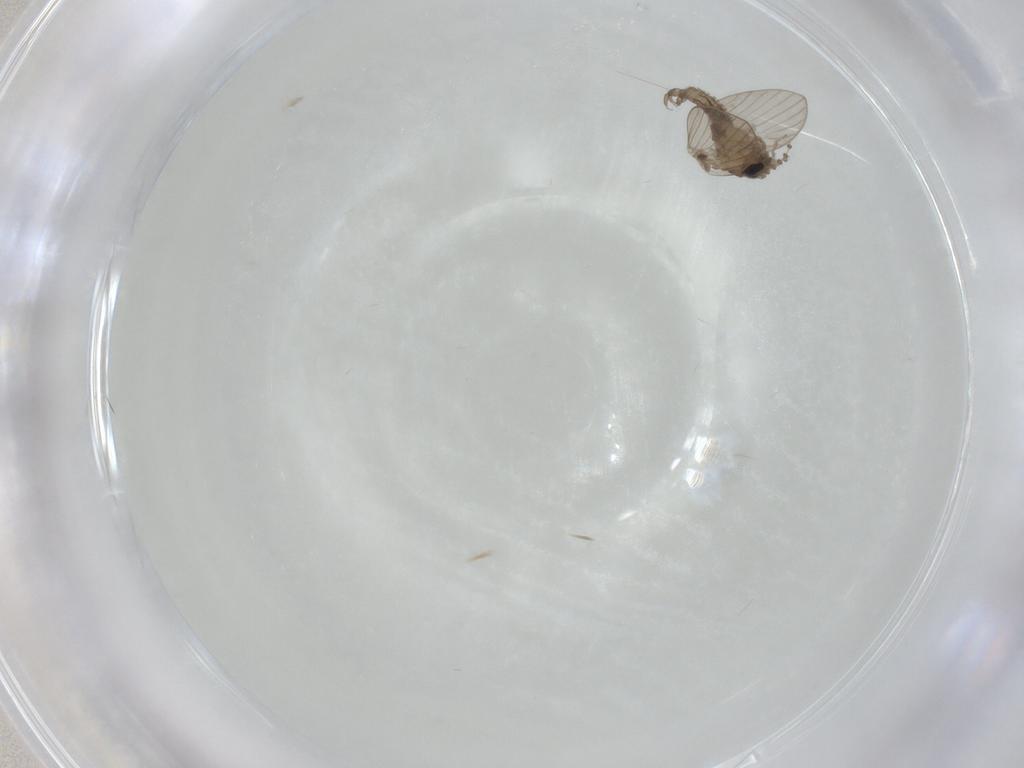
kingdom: Animalia
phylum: Arthropoda
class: Insecta
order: Diptera
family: Psychodidae
